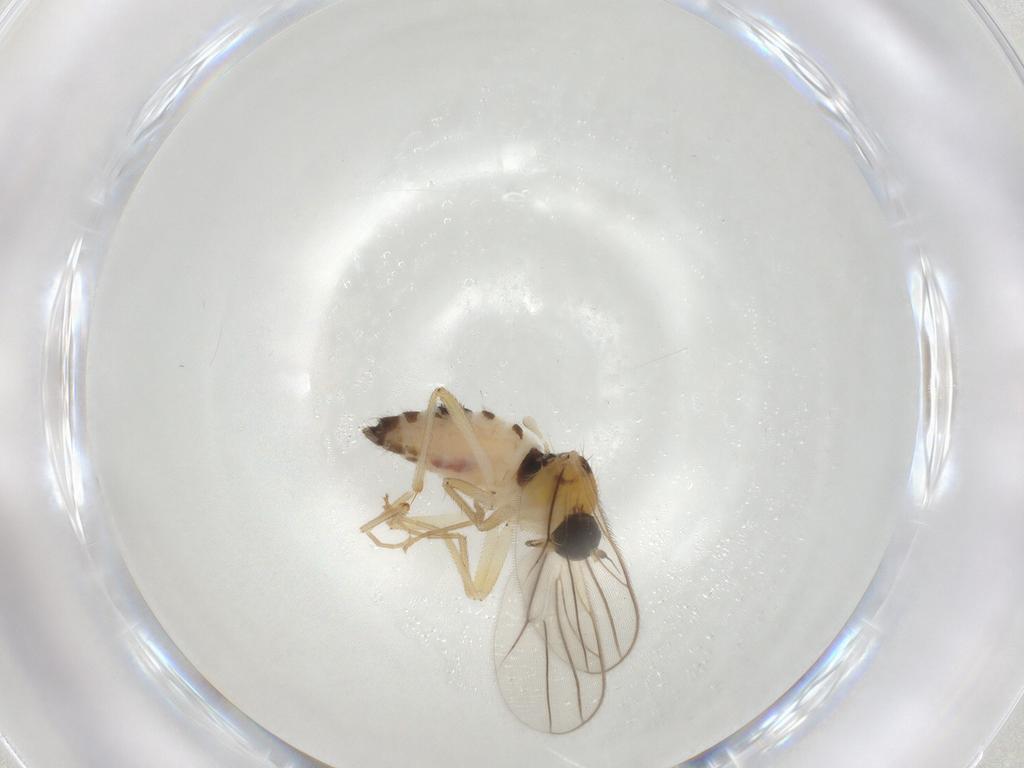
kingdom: Animalia
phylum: Arthropoda
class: Insecta
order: Diptera
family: Hybotidae
